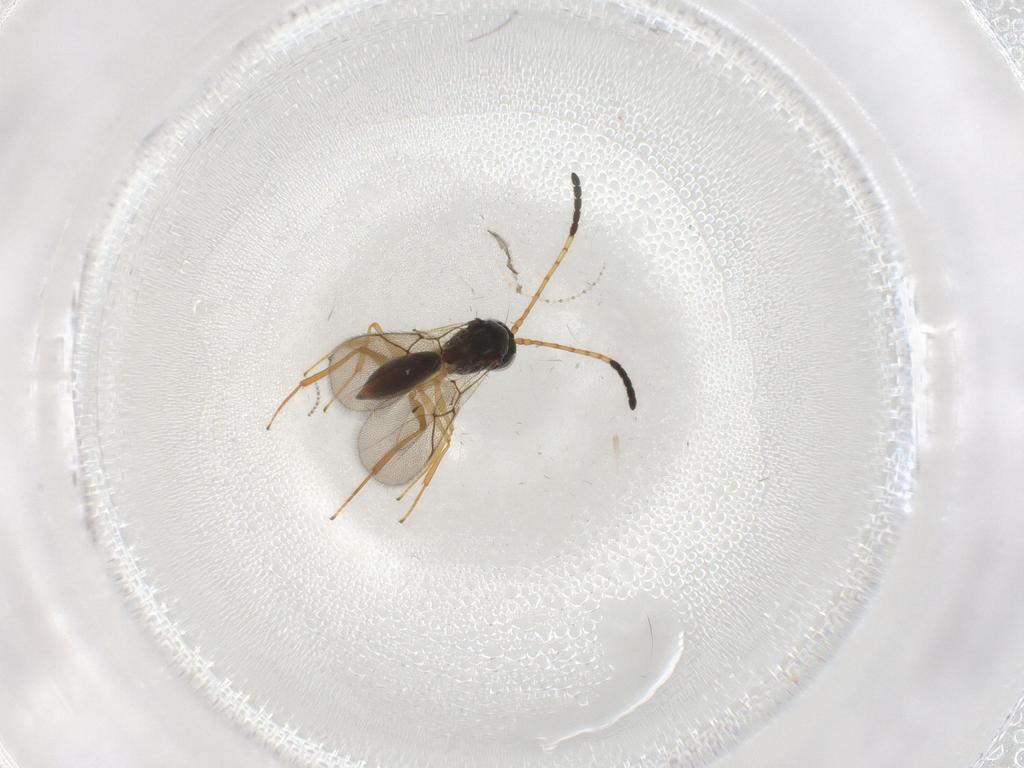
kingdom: Animalia
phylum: Arthropoda
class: Insecta
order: Hymenoptera
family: Figitidae
